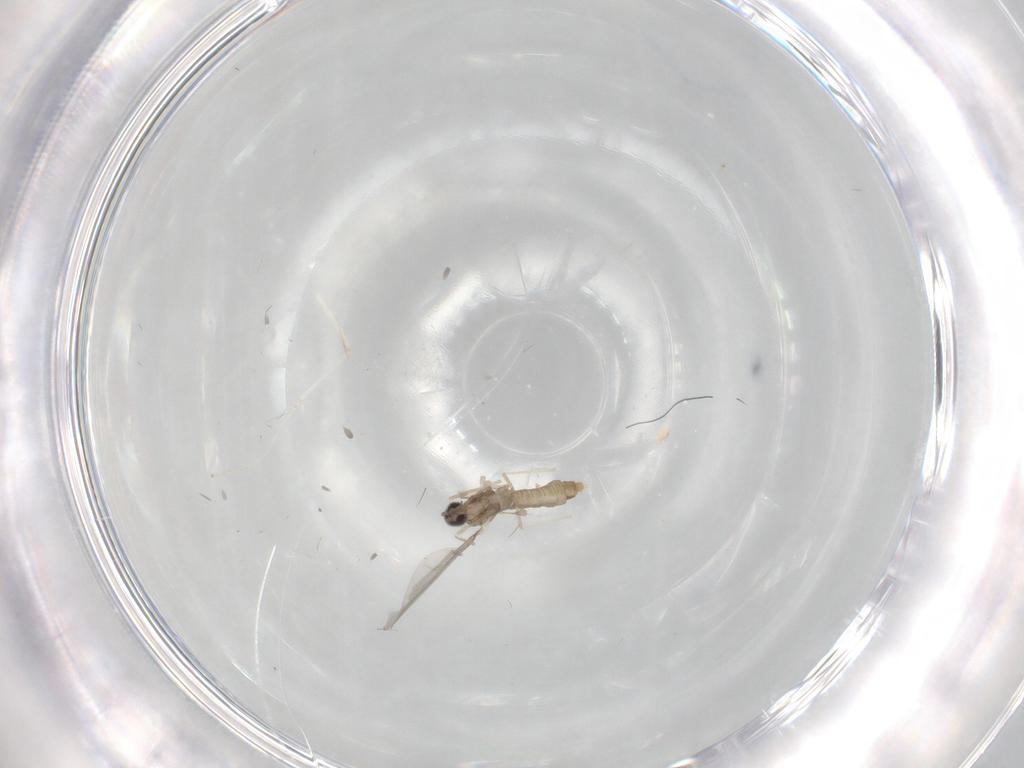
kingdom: Animalia
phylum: Arthropoda
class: Insecta
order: Diptera
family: Cecidomyiidae
